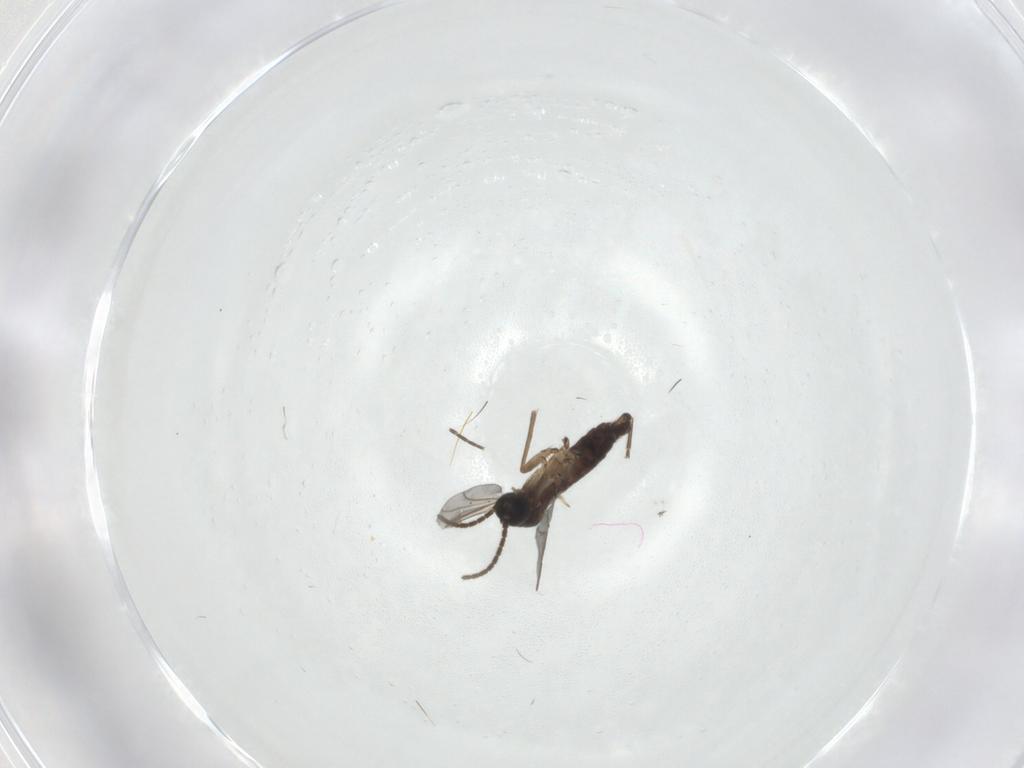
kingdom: Animalia
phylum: Arthropoda
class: Insecta
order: Diptera
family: Sciaridae
